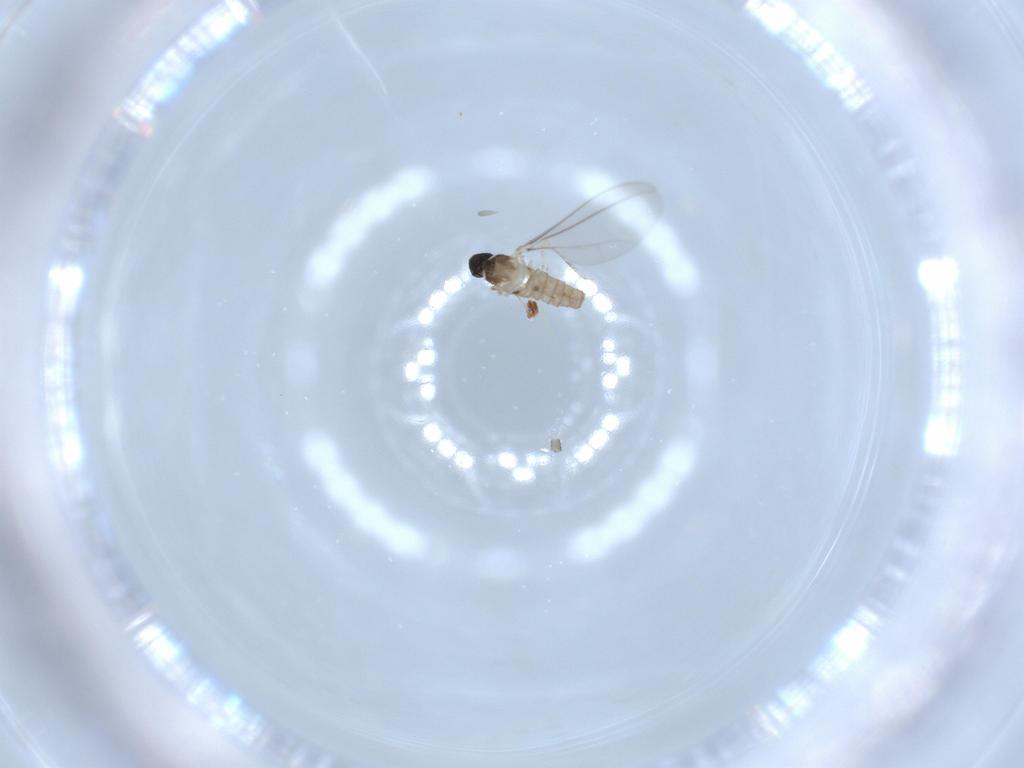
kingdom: Animalia
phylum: Arthropoda
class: Insecta
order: Diptera
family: Cecidomyiidae
